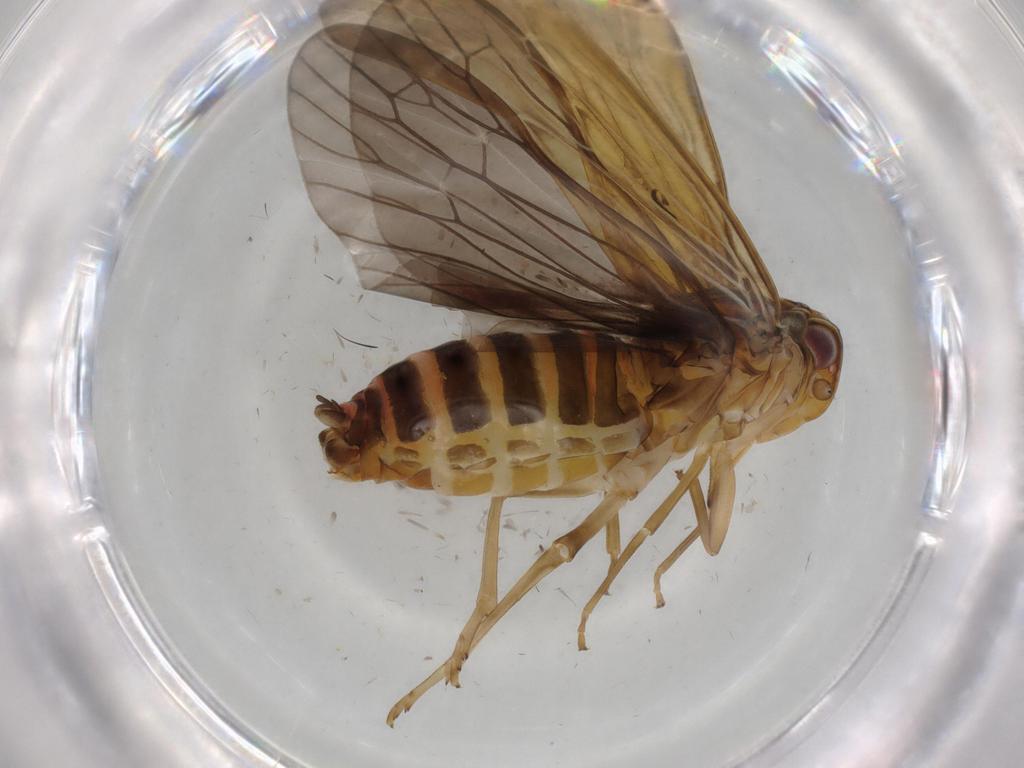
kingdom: Animalia
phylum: Arthropoda
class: Insecta
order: Hemiptera
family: Achilidae
